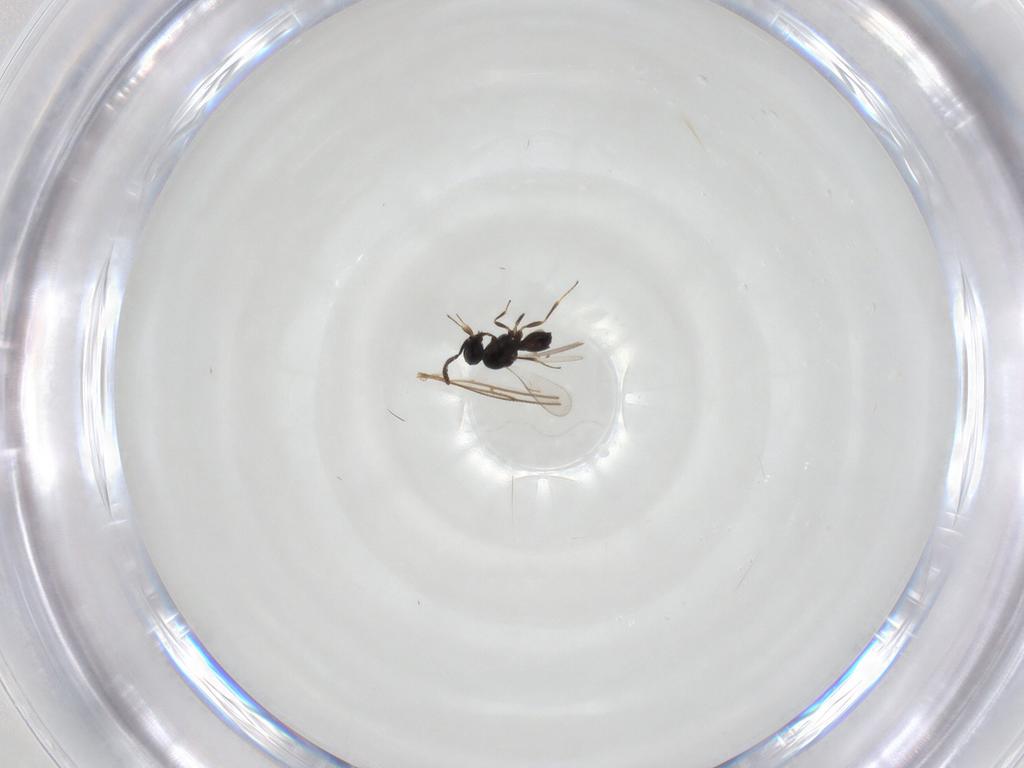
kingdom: Animalia
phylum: Arthropoda
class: Insecta
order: Hymenoptera
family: Scelionidae
